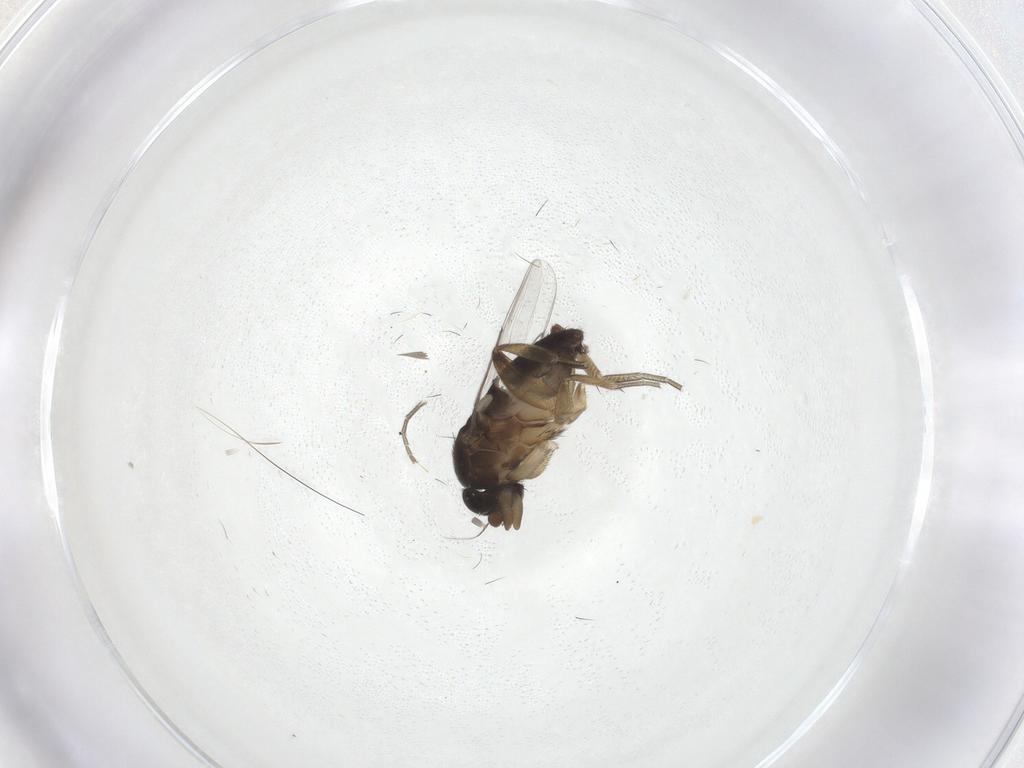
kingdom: Animalia
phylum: Arthropoda
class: Insecta
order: Diptera
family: Phoridae
